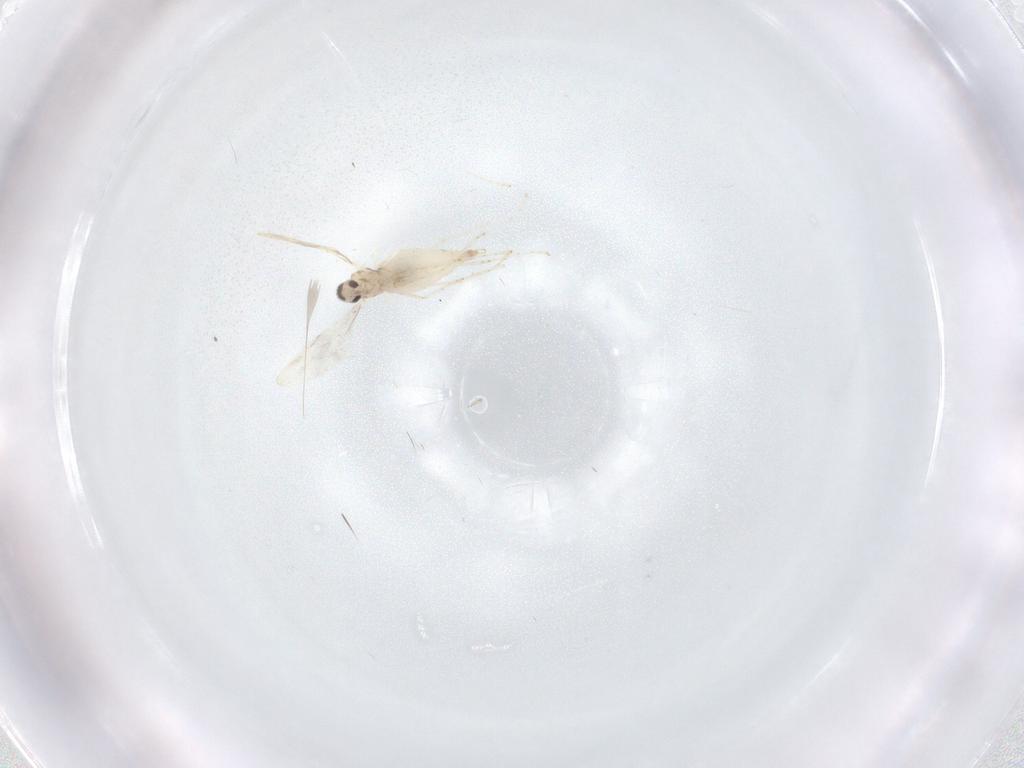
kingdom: Animalia
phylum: Arthropoda
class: Insecta
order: Diptera
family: Cecidomyiidae
